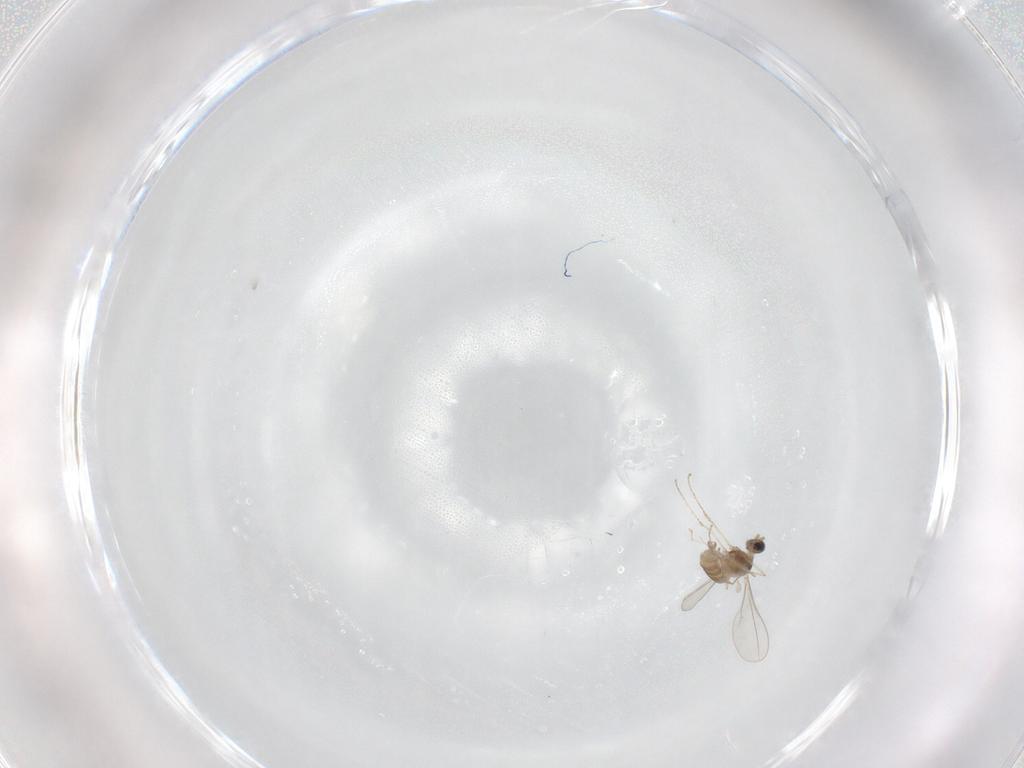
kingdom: Animalia
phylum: Arthropoda
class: Insecta
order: Diptera
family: Cecidomyiidae
